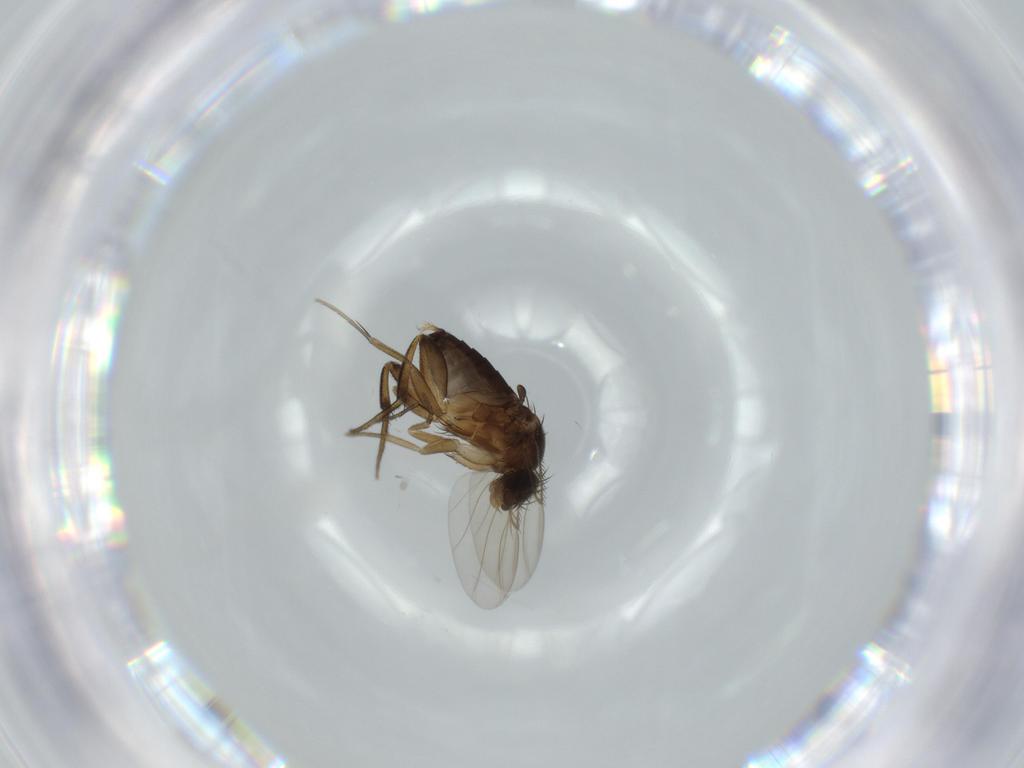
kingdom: Animalia
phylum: Arthropoda
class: Insecta
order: Diptera
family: Phoridae
